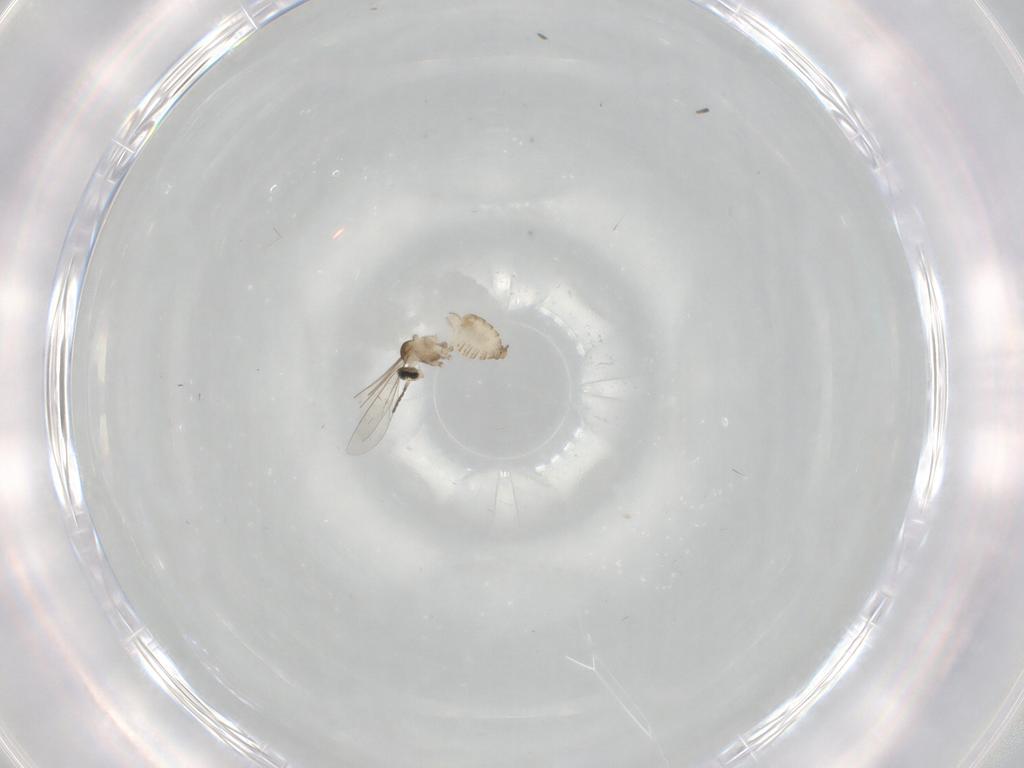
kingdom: Animalia
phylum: Arthropoda
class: Insecta
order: Diptera
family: Cecidomyiidae
